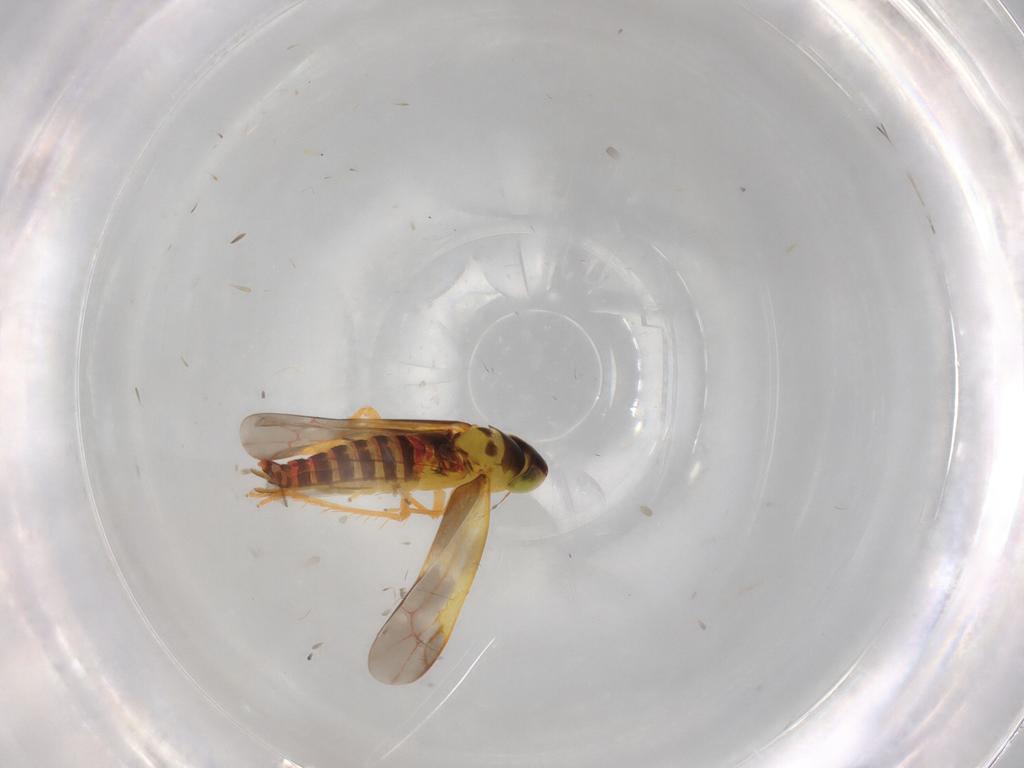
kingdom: Animalia
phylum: Arthropoda
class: Insecta
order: Hemiptera
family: Cicadellidae
